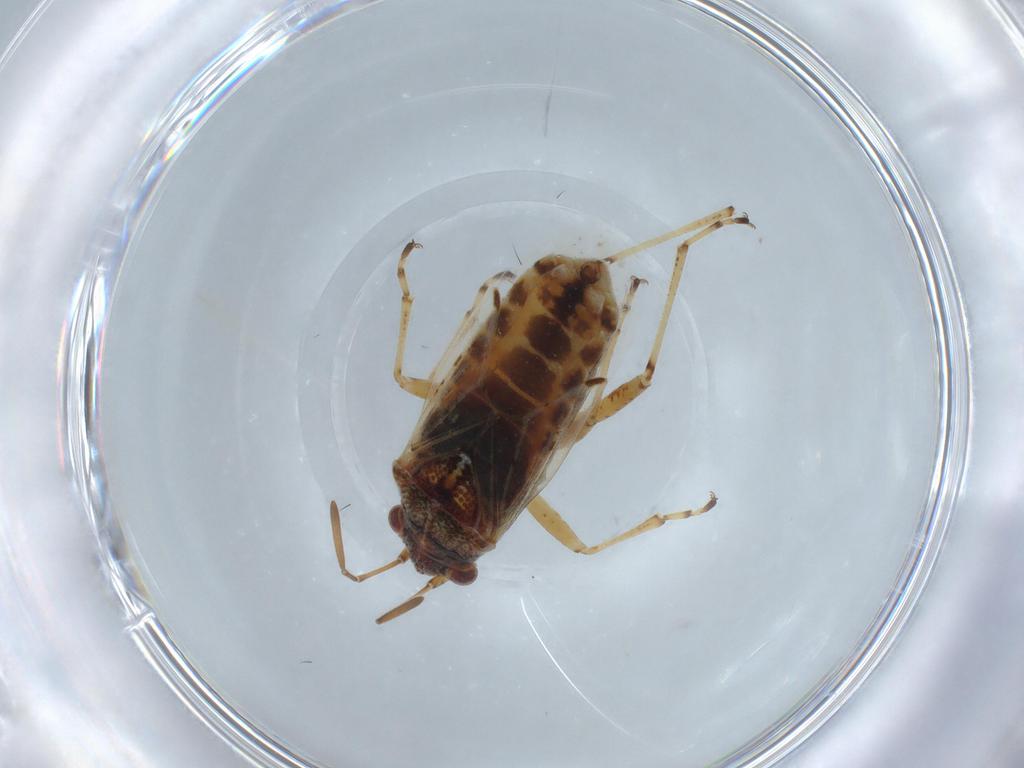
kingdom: Animalia
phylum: Arthropoda
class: Insecta
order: Hemiptera
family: Lygaeidae
